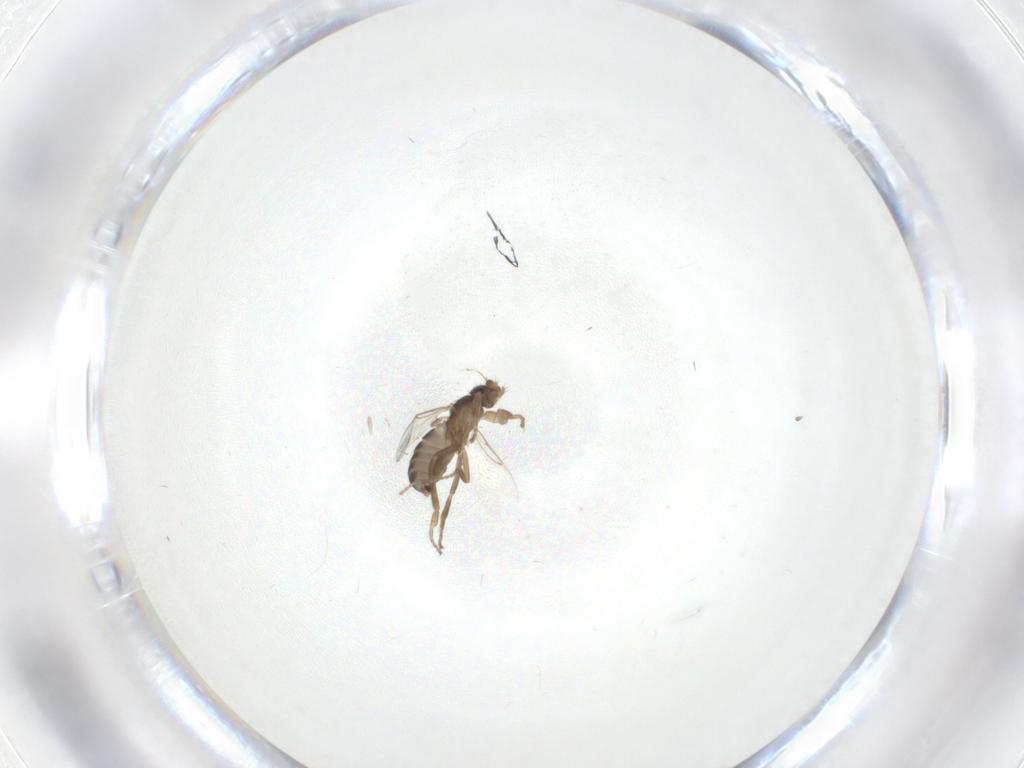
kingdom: Animalia
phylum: Arthropoda
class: Insecta
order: Diptera
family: Phoridae
